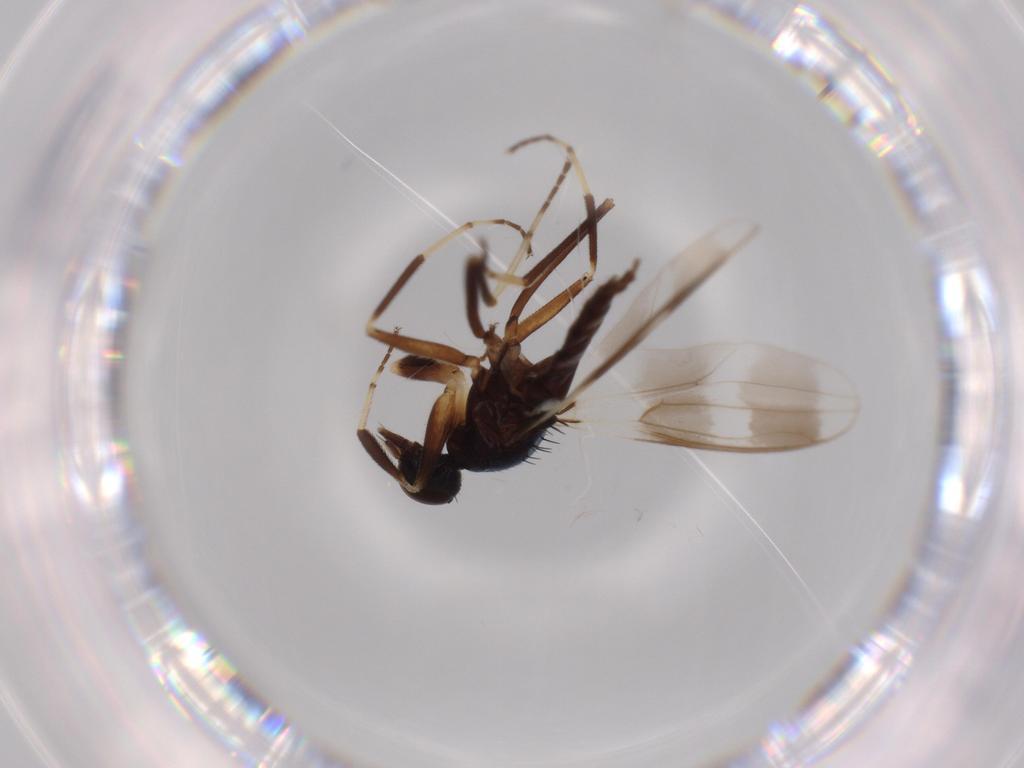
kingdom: Animalia
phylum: Arthropoda
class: Insecta
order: Diptera
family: Hybotidae
